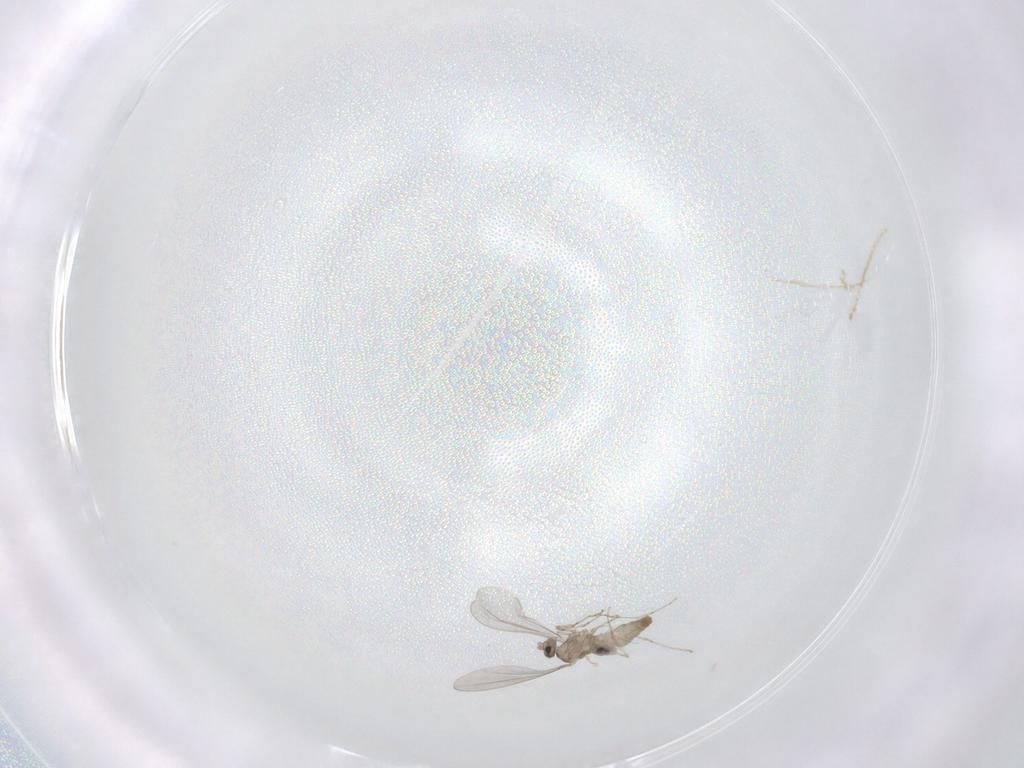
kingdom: Animalia
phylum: Arthropoda
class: Insecta
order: Diptera
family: Cecidomyiidae
